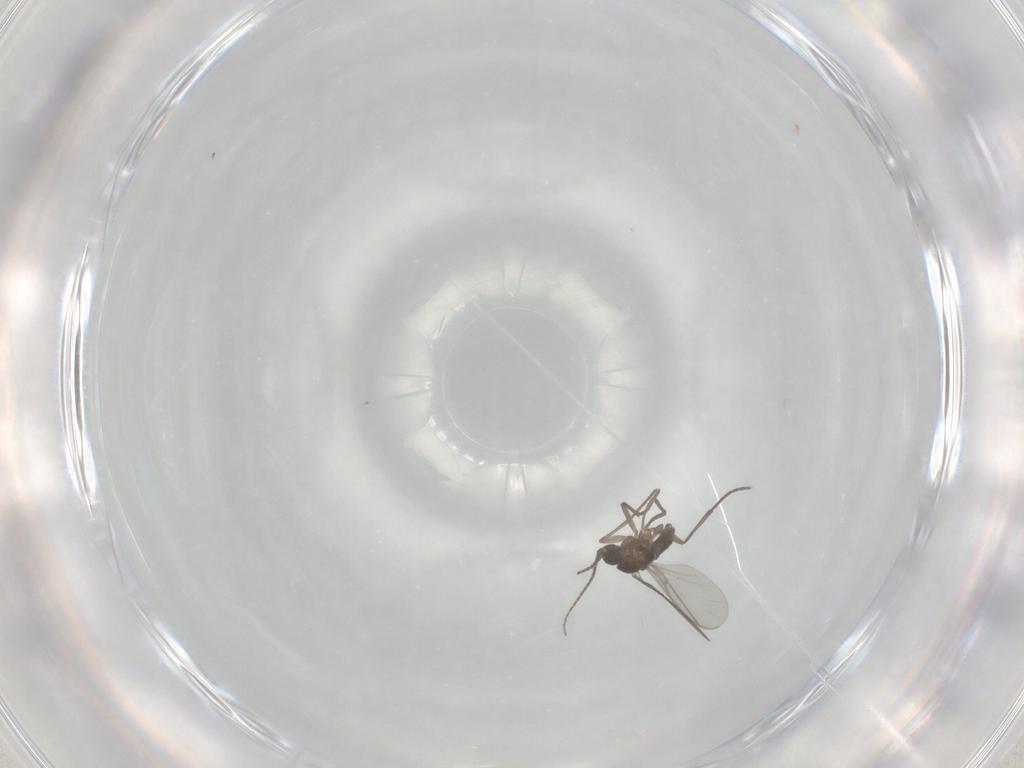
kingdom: Animalia
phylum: Arthropoda
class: Insecta
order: Diptera
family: Sciaridae
